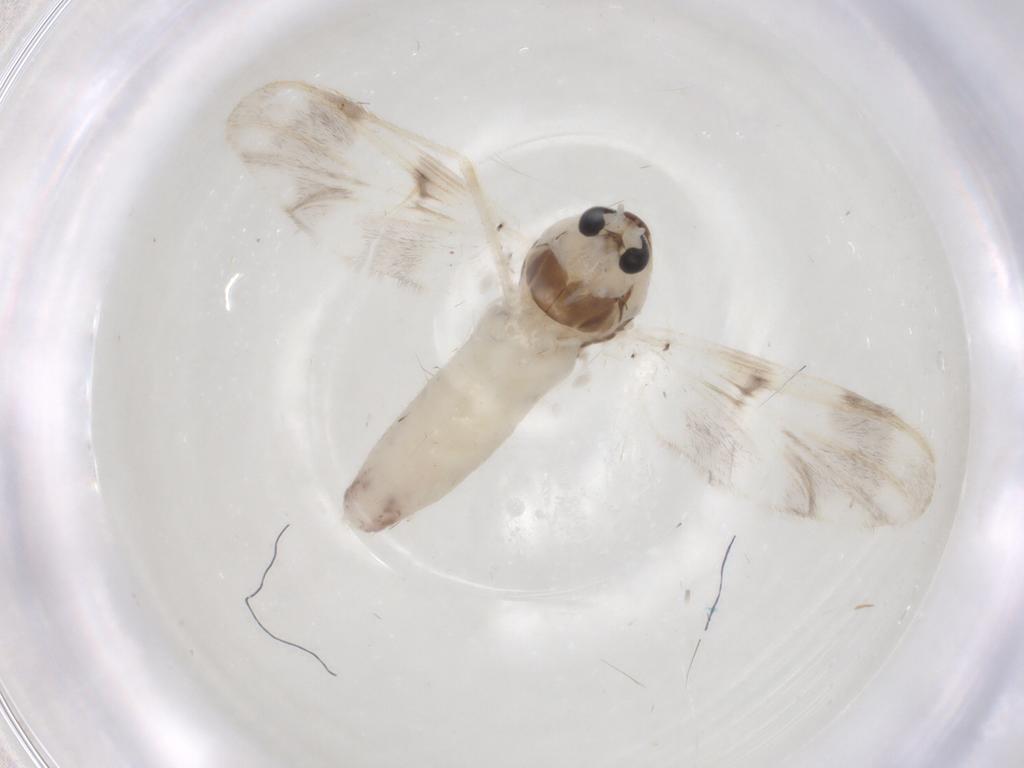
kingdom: Animalia
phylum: Arthropoda
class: Insecta
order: Diptera
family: Chironomidae
